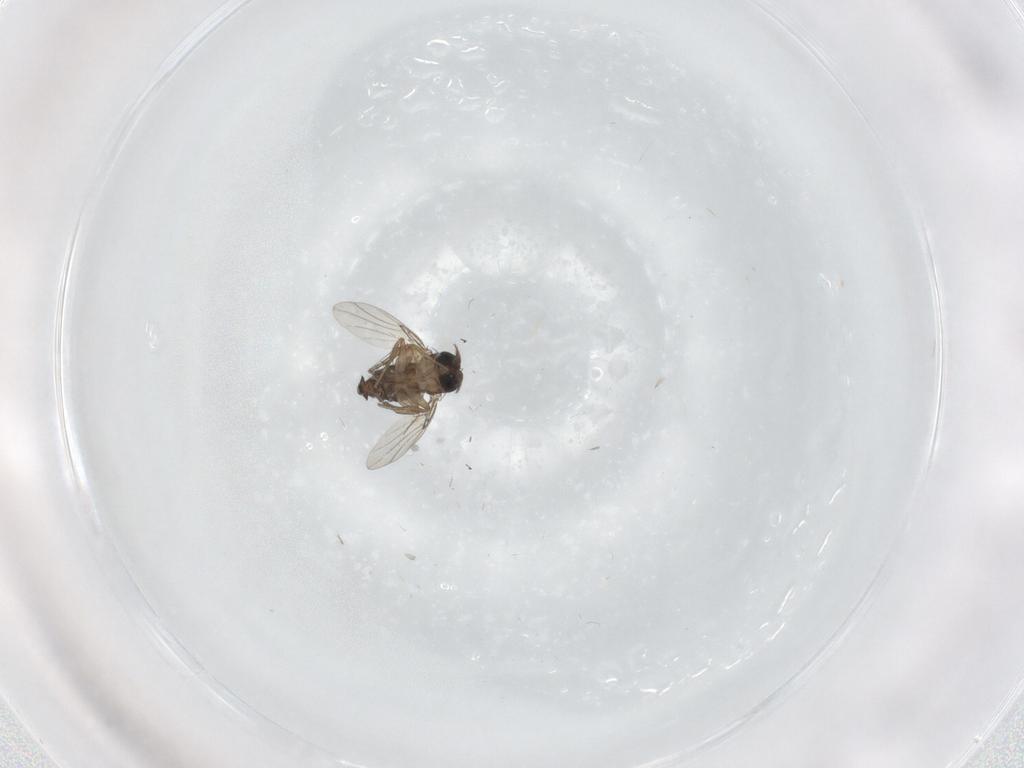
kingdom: Animalia
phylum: Arthropoda
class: Insecta
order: Diptera
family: Phoridae
